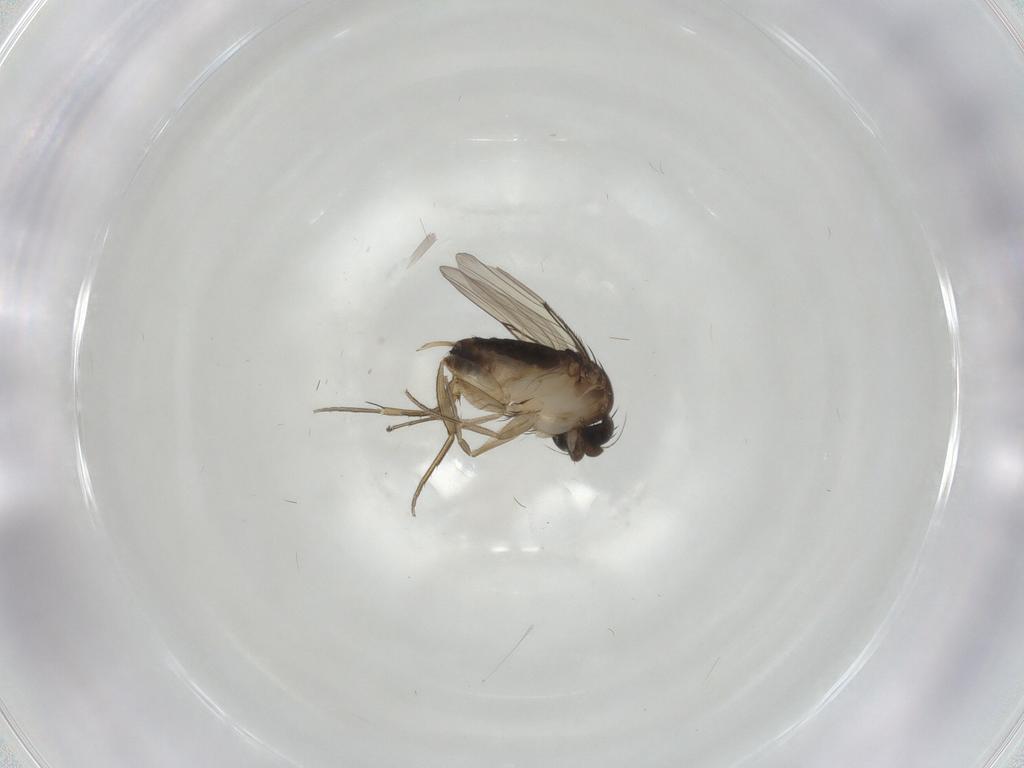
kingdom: Animalia
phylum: Arthropoda
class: Insecta
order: Diptera
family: Phoridae
